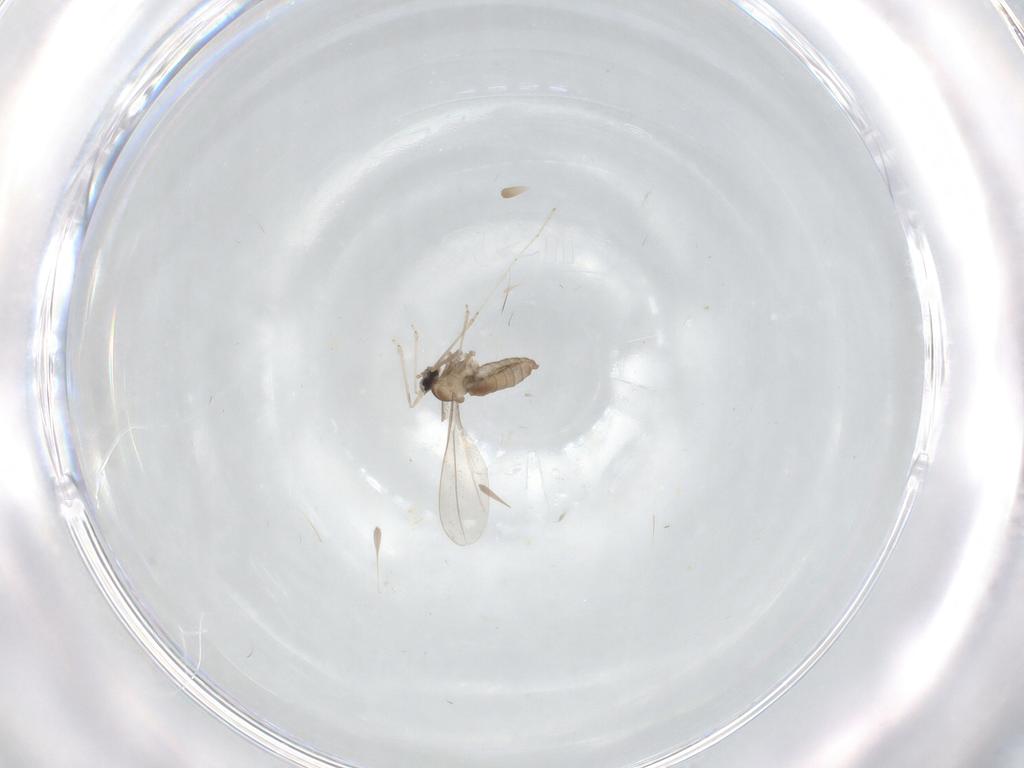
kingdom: Animalia
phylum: Arthropoda
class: Insecta
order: Diptera
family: Cecidomyiidae
